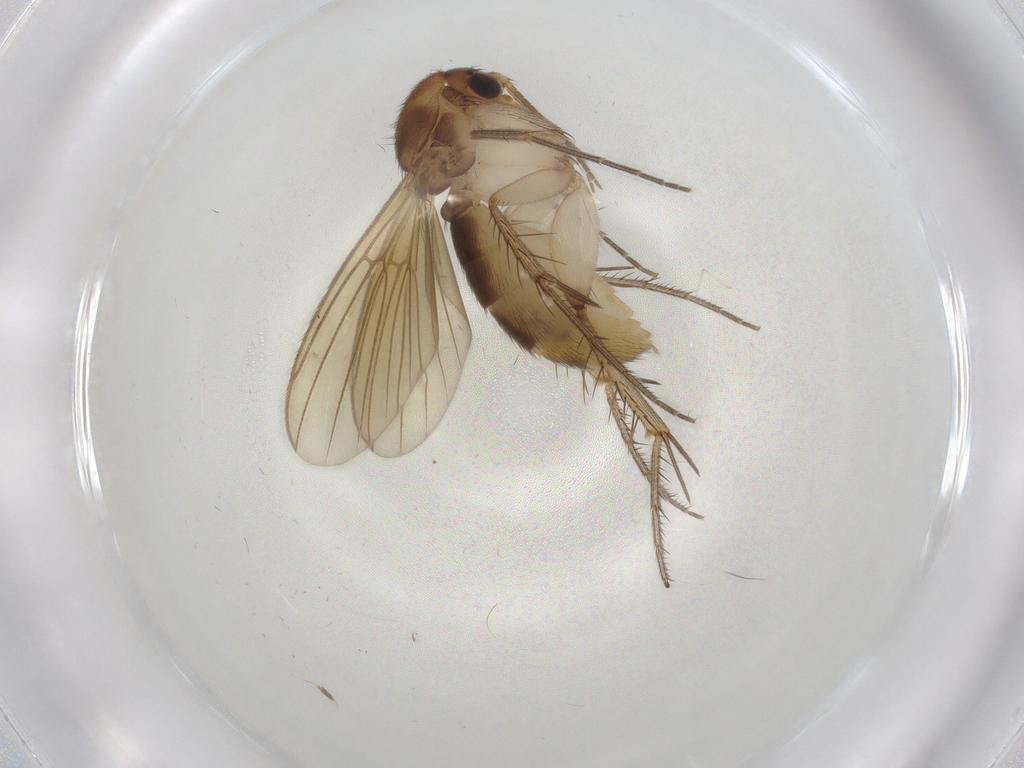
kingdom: Animalia
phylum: Arthropoda
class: Insecta
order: Diptera
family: Mycetophilidae
